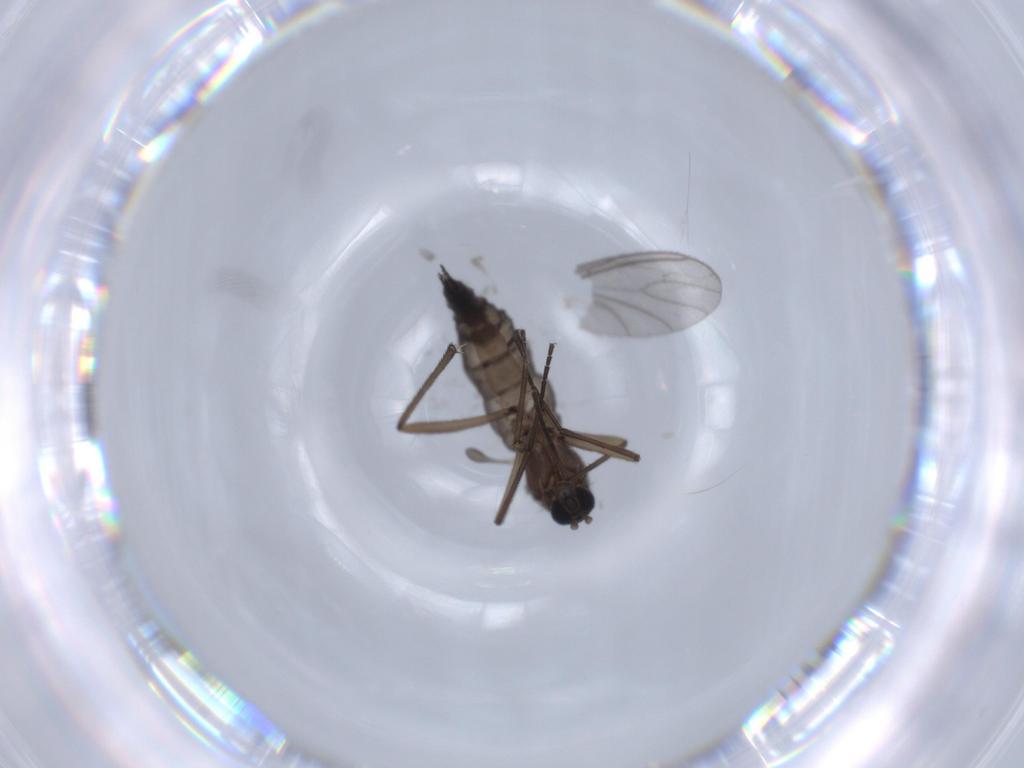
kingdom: Animalia
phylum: Arthropoda
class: Insecta
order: Diptera
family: Sciaridae
